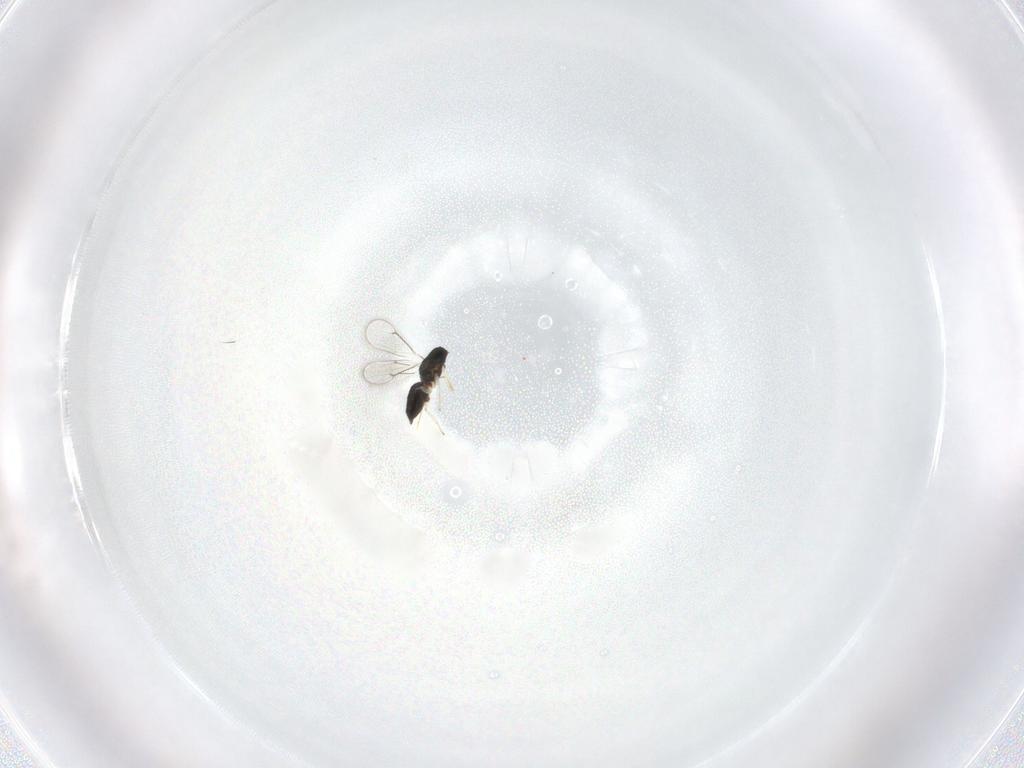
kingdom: Animalia
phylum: Arthropoda
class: Insecta
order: Hymenoptera
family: Eulophidae
